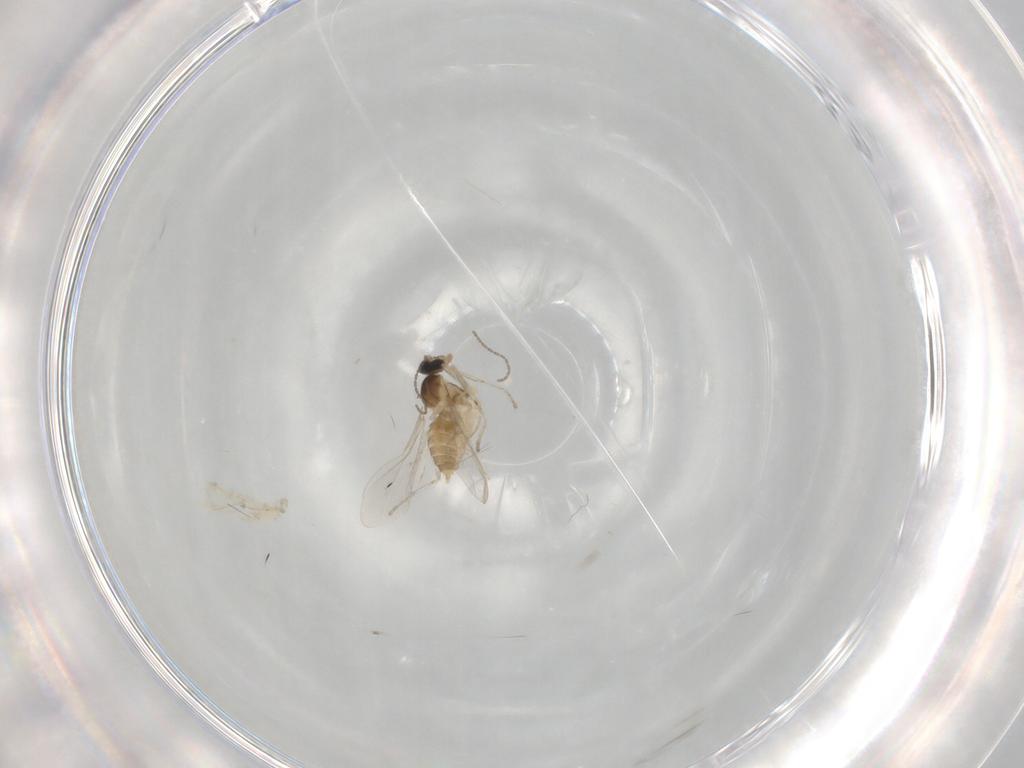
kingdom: Animalia
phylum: Arthropoda
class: Insecta
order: Diptera
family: Cecidomyiidae
